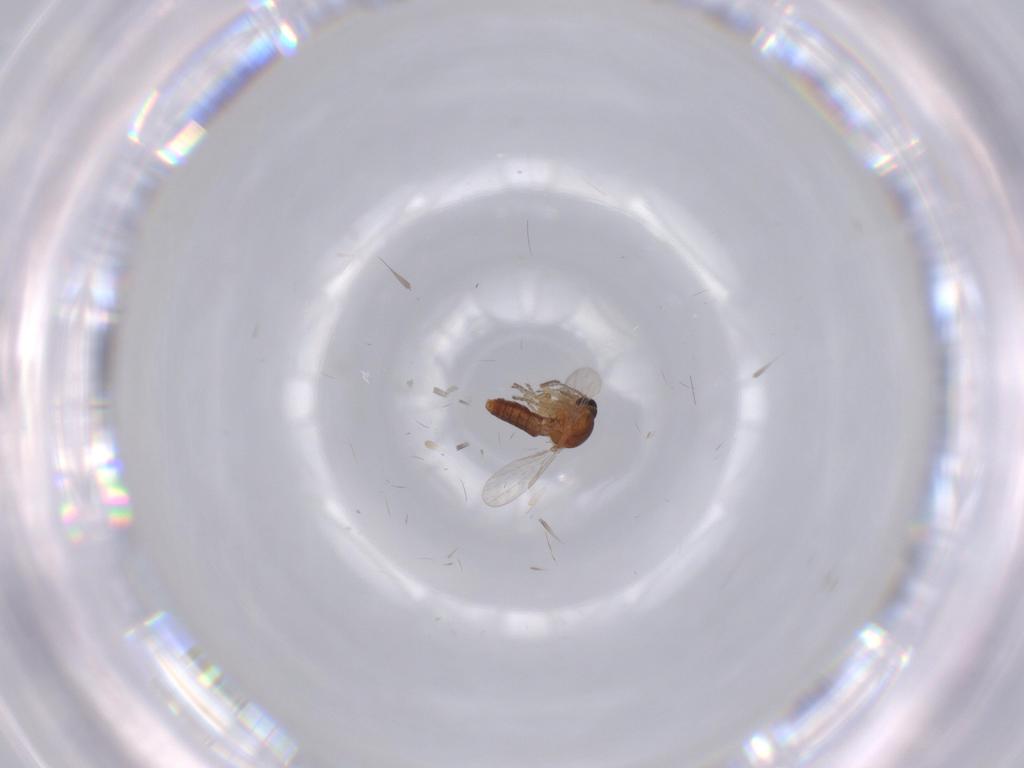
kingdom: Animalia
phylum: Arthropoda
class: Insecta
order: Diptera
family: Ceratopogonidae
